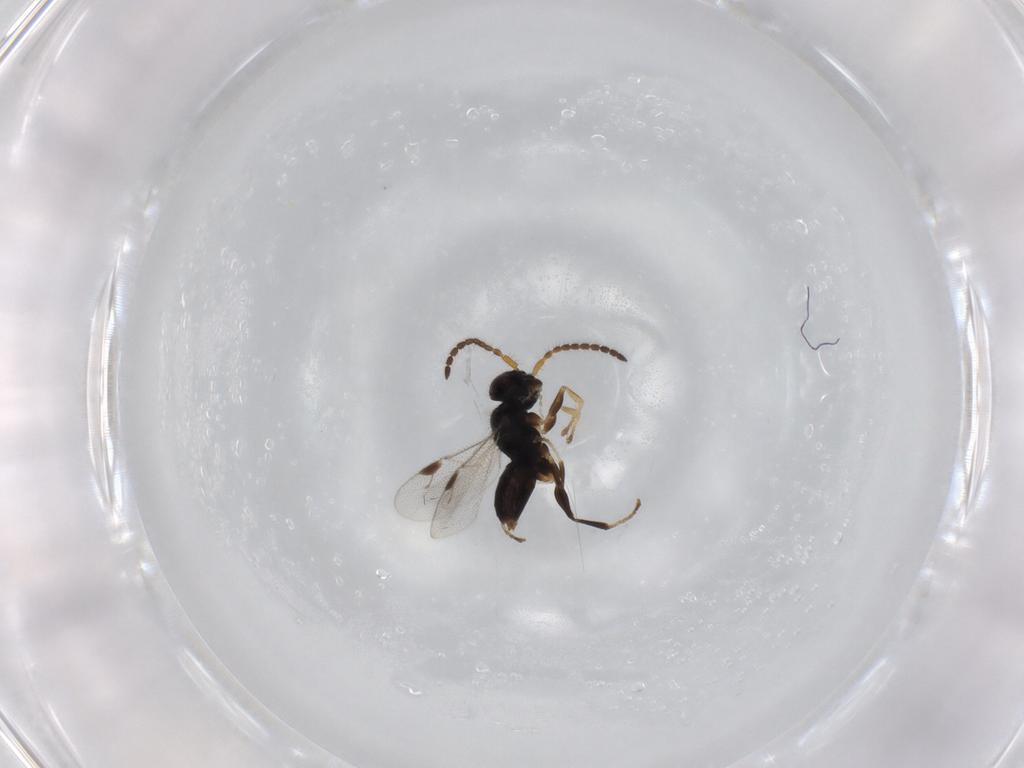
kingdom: Animalia
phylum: Arthropoda
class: Insecta
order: Hymenoptera
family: Dryinidae
